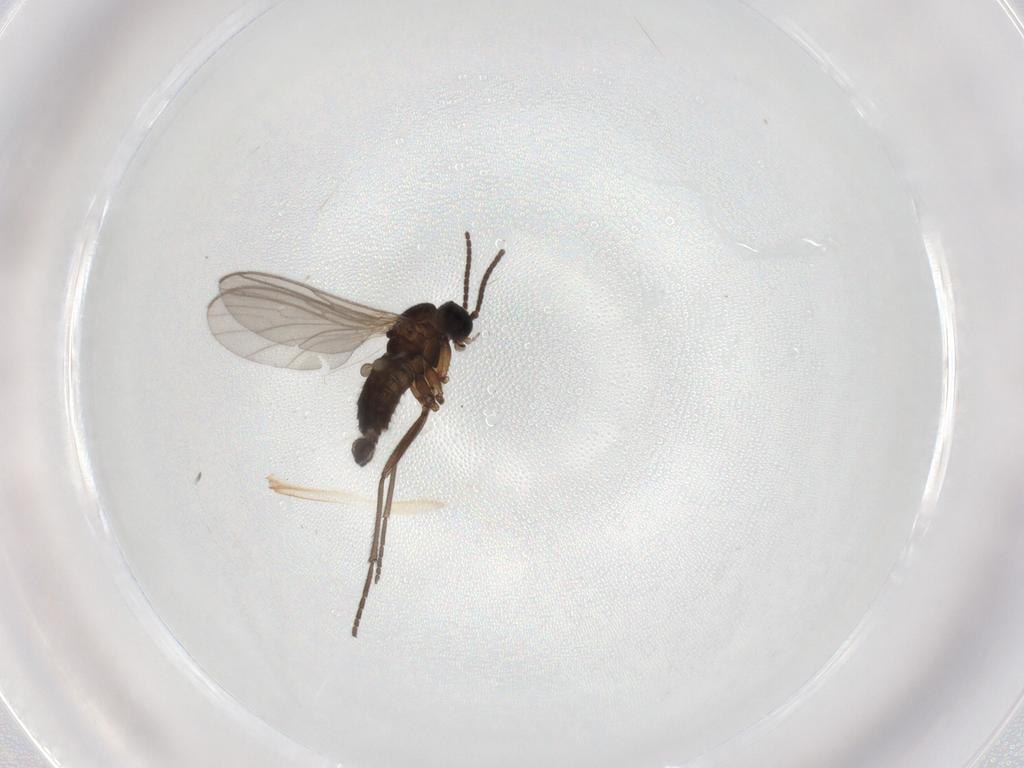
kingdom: Animalia
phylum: Arthropoda
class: Insecta
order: Diptera
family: Sciaridae
